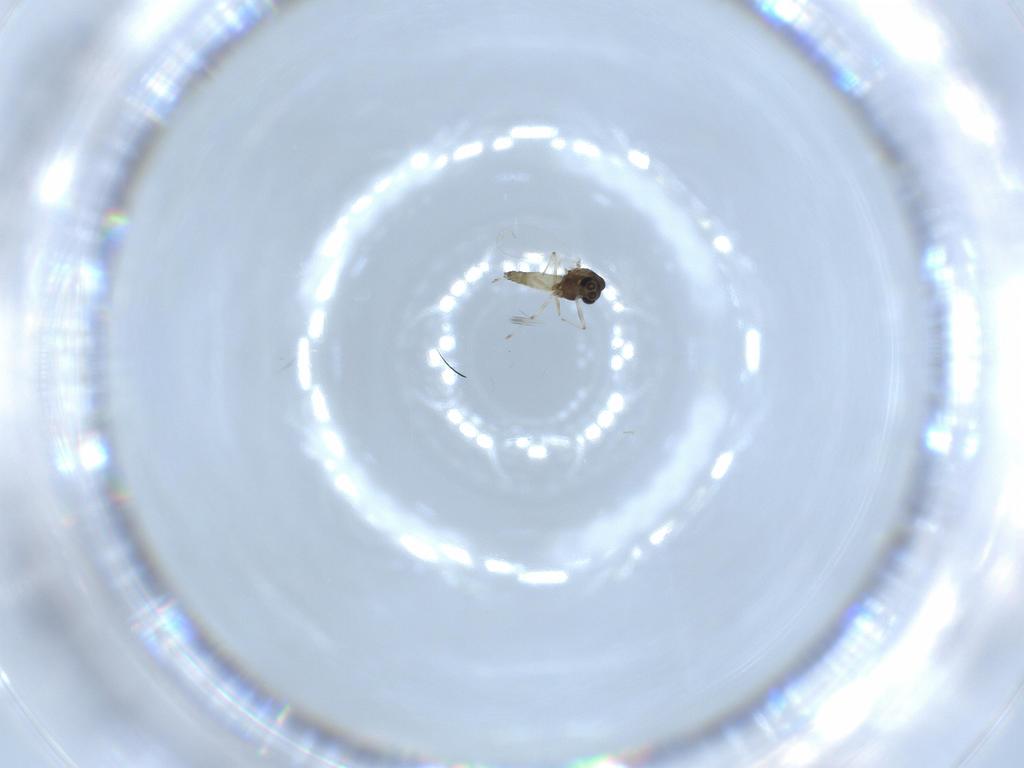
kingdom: Animalia
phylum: Arthropoda
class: Insecta
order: Diptera
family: Chironomidae
